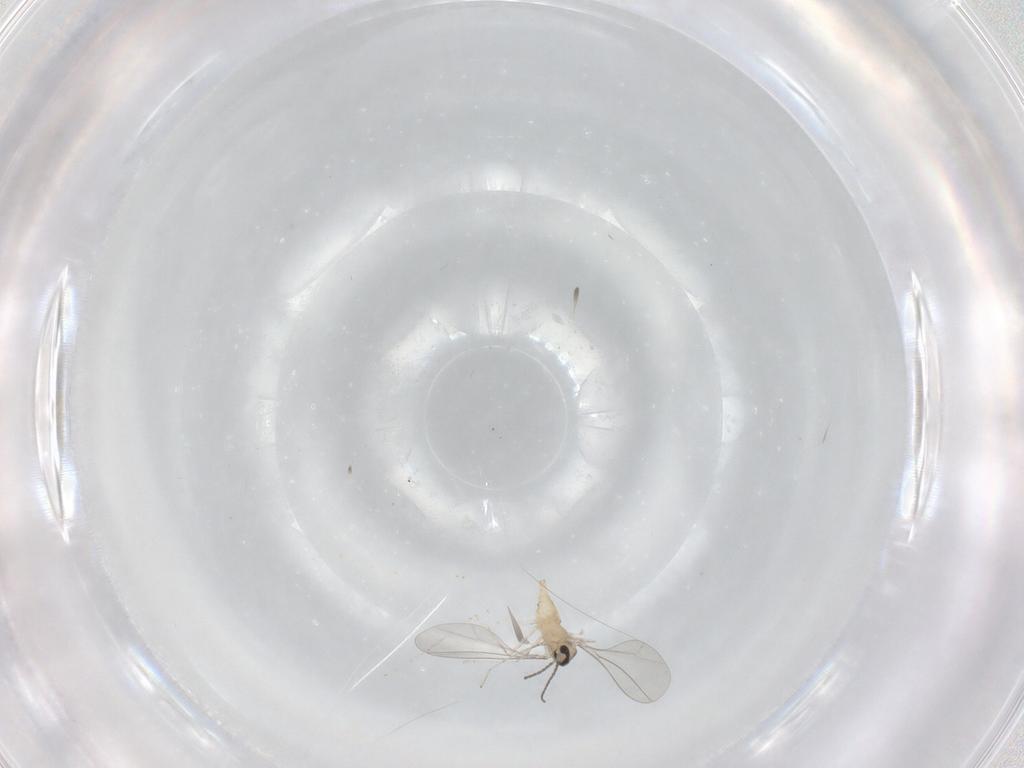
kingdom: Animalia
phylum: Arthropoda
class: Insecta
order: Diptera
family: Cecidomyiidae
